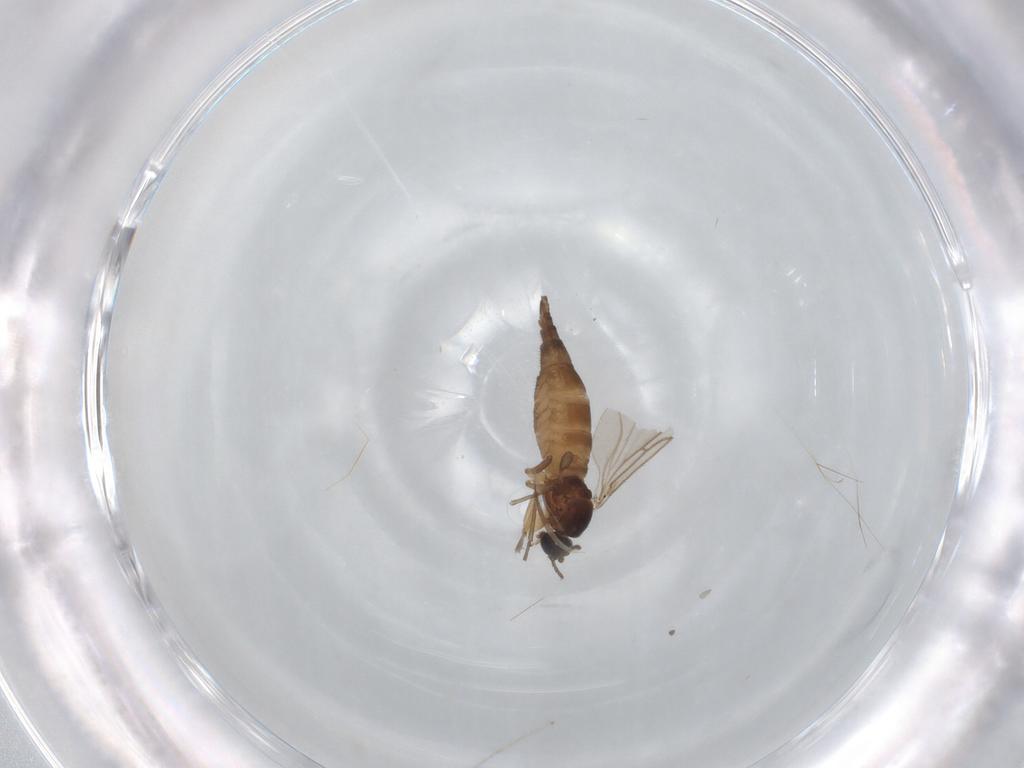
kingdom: Animalia
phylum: Arthropoda
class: Insecta
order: Diptera
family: Sciaridae
